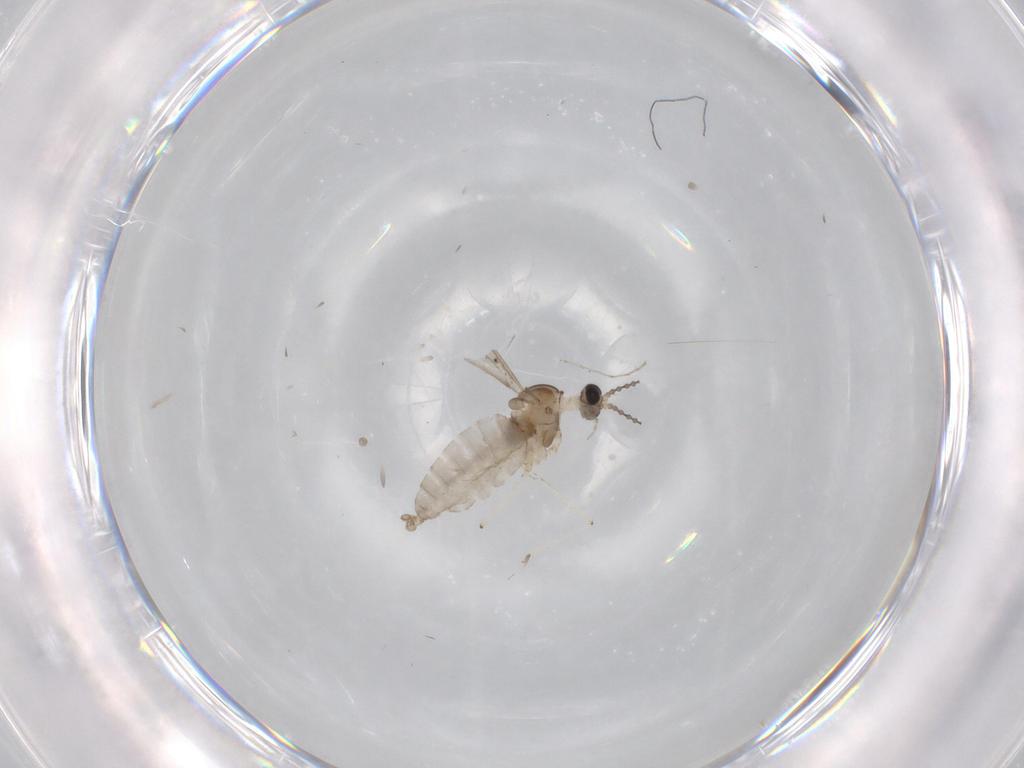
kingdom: Animalia
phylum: Arthropoda
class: Insecta
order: Diptera
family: Cecidomyiidae
